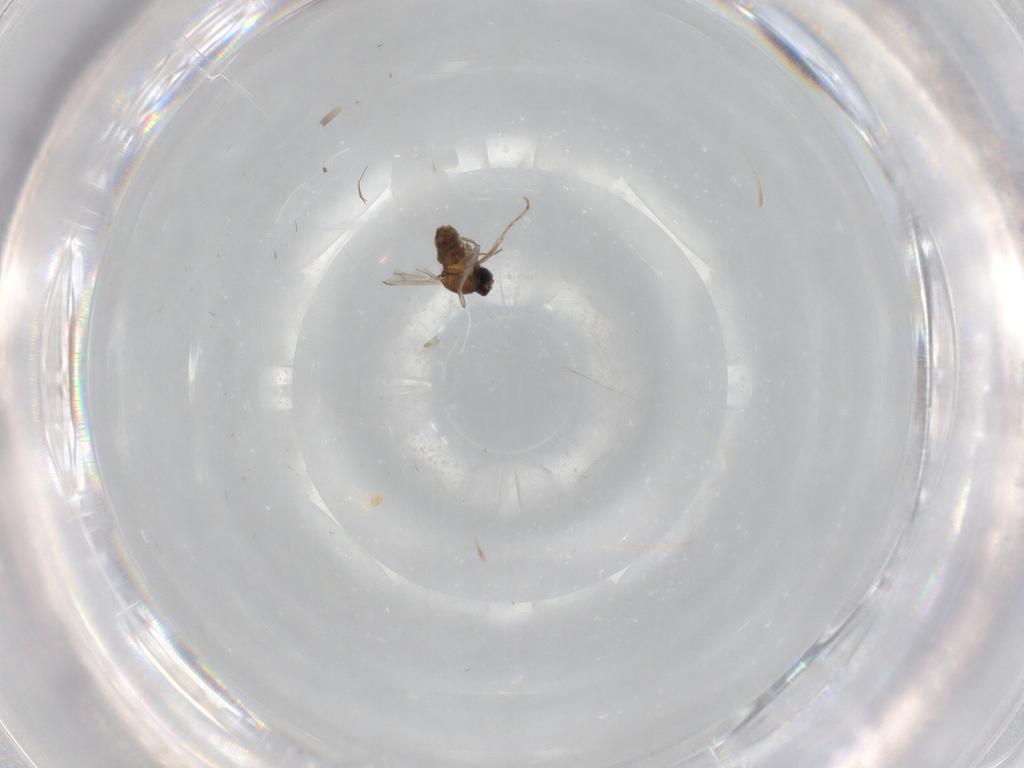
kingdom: Animalia
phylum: Arthropoda
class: Insecta
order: Diptera
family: Cecidomyiidae
